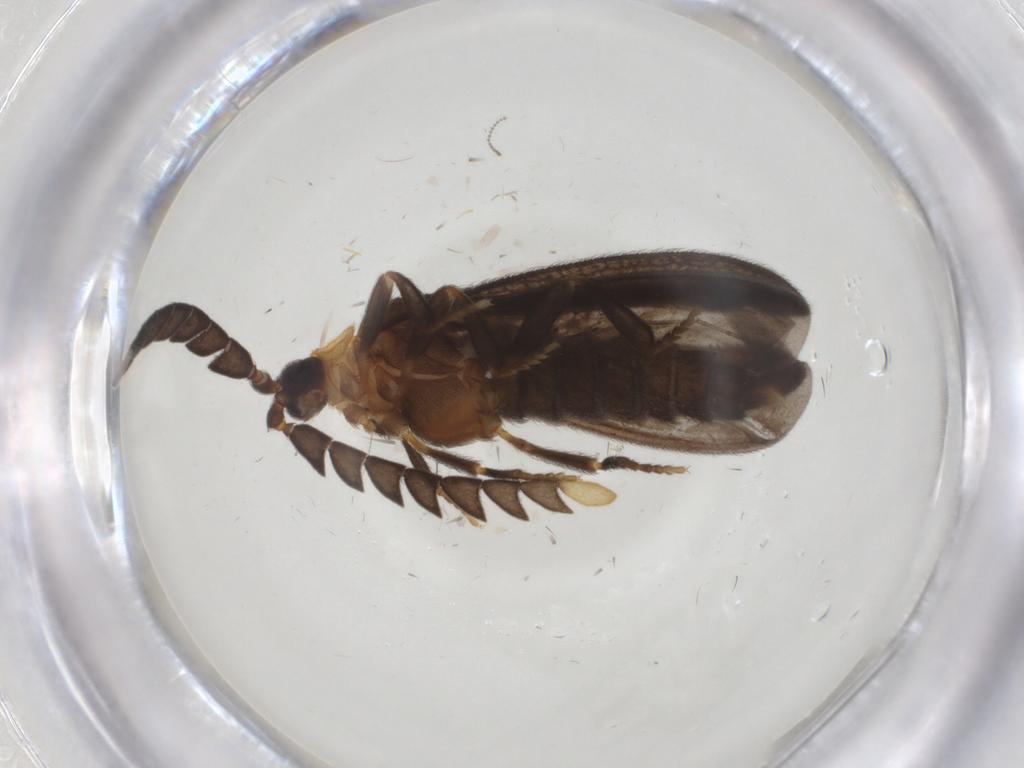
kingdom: Animalia
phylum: Arthropoda
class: Insecta
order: Coleoptera
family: Lycidae
